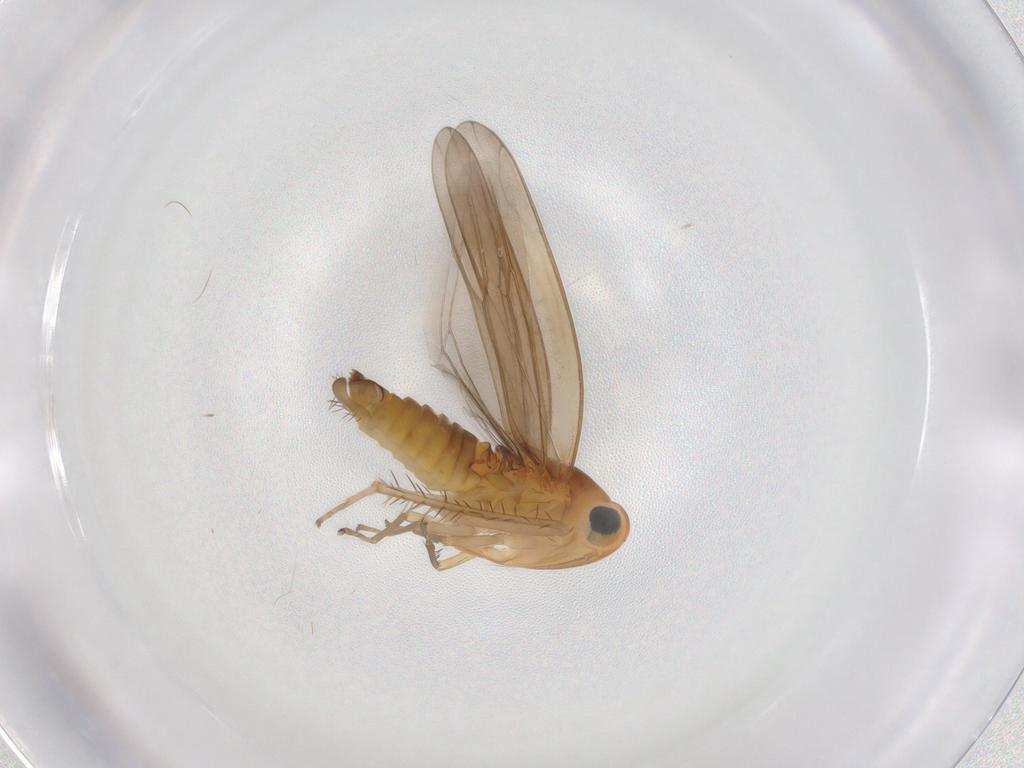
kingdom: Animalia
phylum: Arthropoda
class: Insecta
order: Hemiptera
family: Cicadellidae
